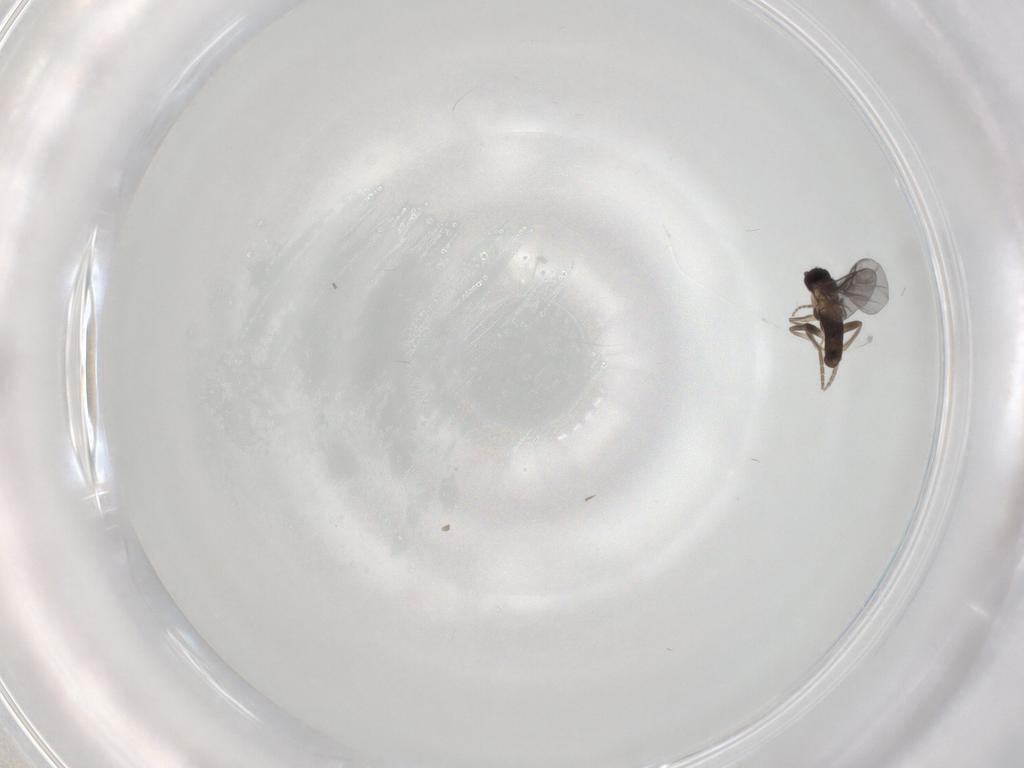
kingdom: Animalia
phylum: Arthropoda
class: Insecta
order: Diptera
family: Phoridae
